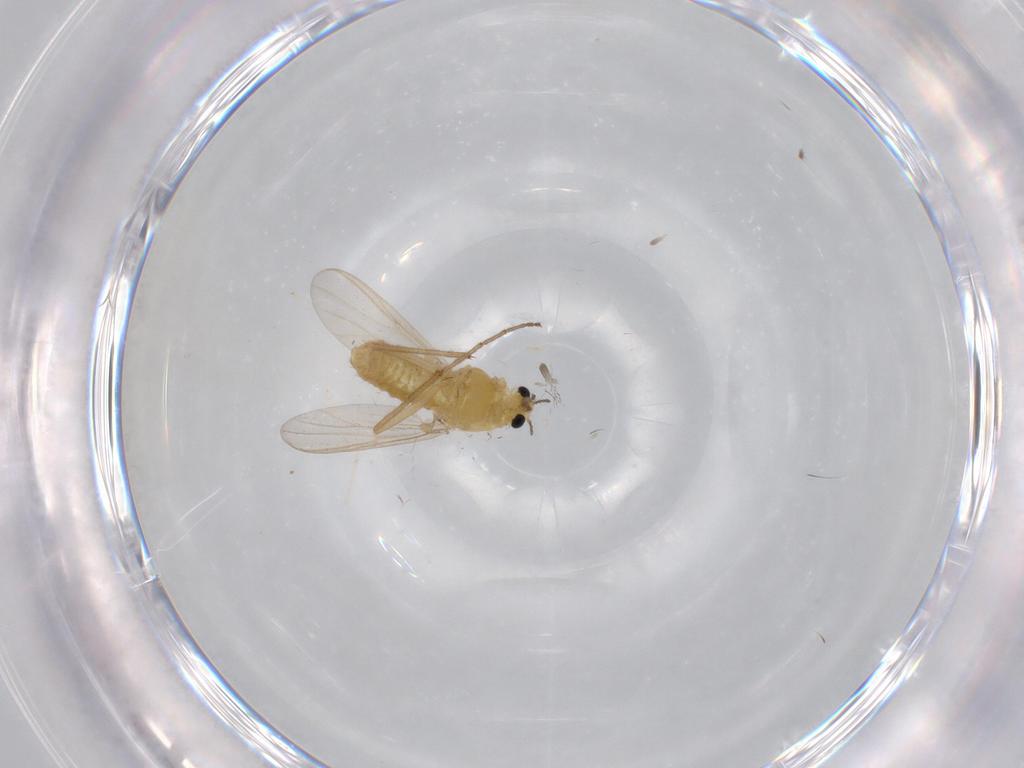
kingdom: Animalia
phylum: Arthropoda
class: Insecta
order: Diptera
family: Chironomidae
